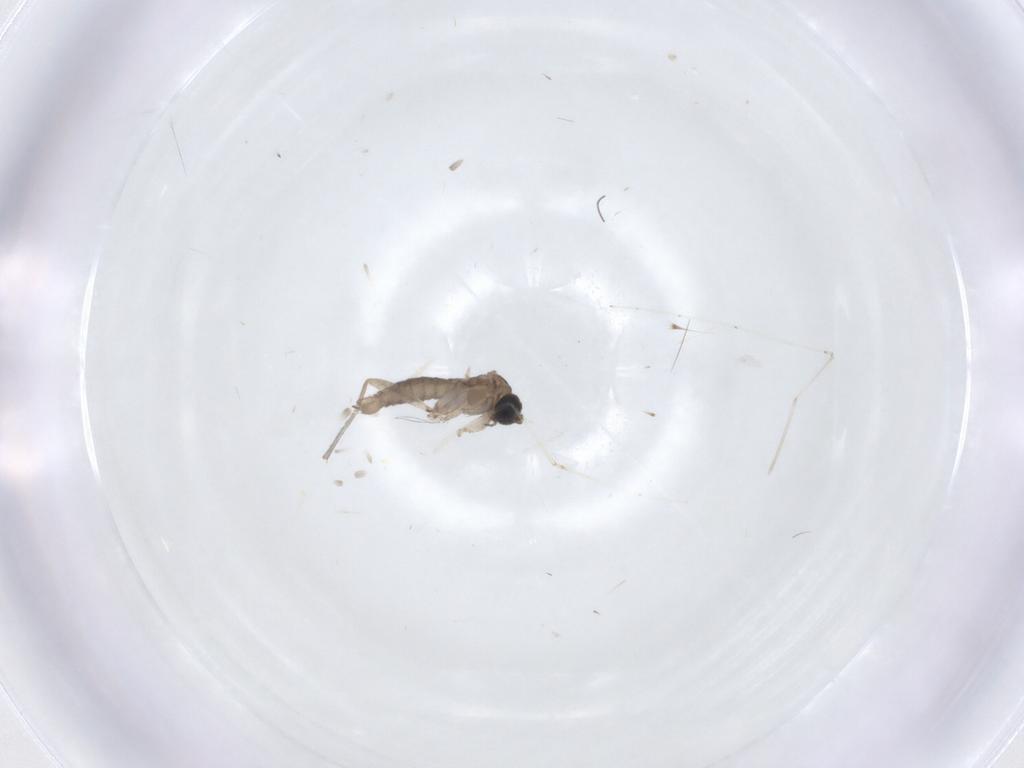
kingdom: Animalia
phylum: Arthropoda
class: Insecta
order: Diptera
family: Sciaridae
